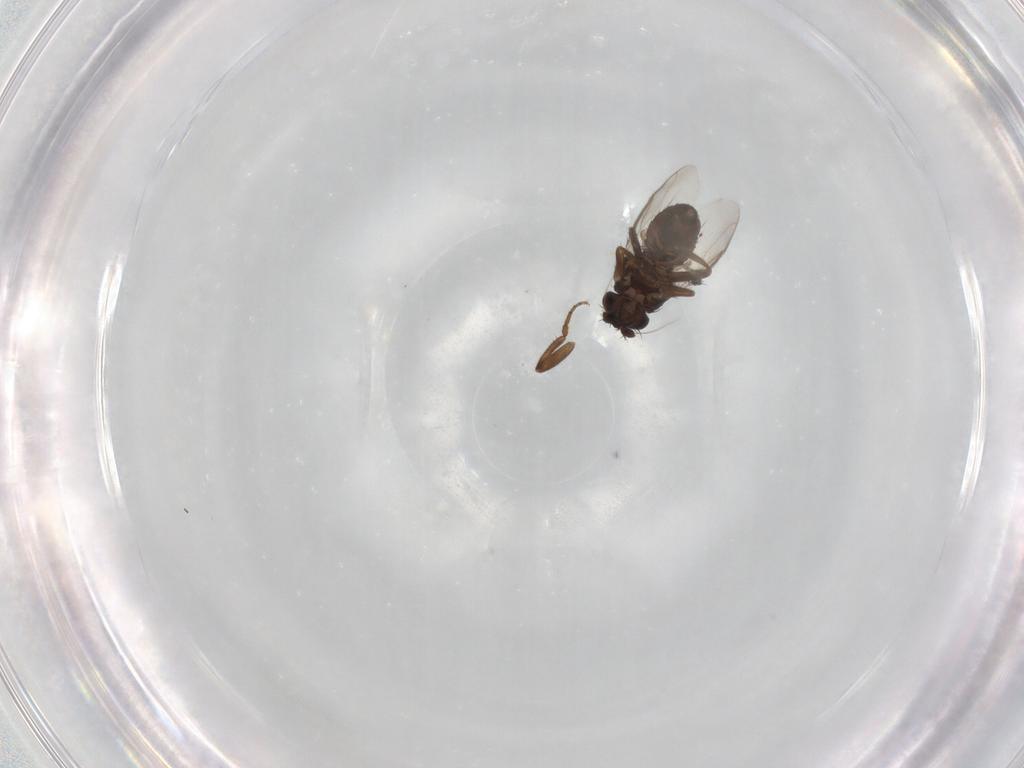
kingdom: Animalia
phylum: Arthropoda
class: Insecta
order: Diptera
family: Sphaeroceridae
